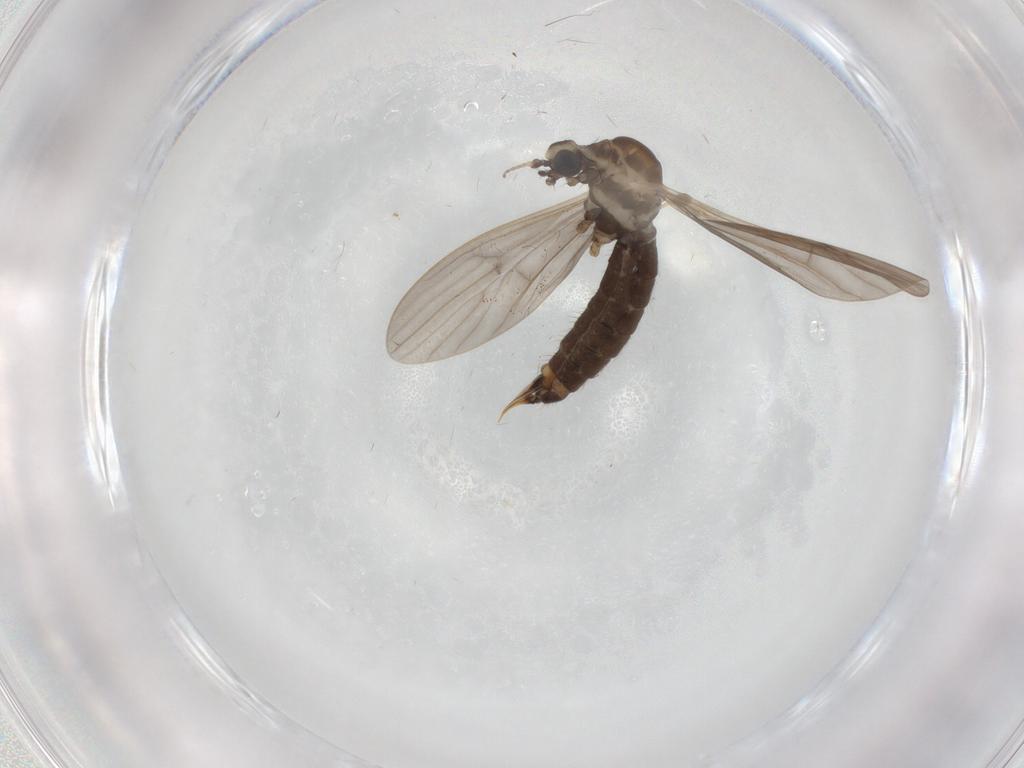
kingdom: Animalia
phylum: Arthropoda
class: Insecta
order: Diptera
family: Limoniidae
